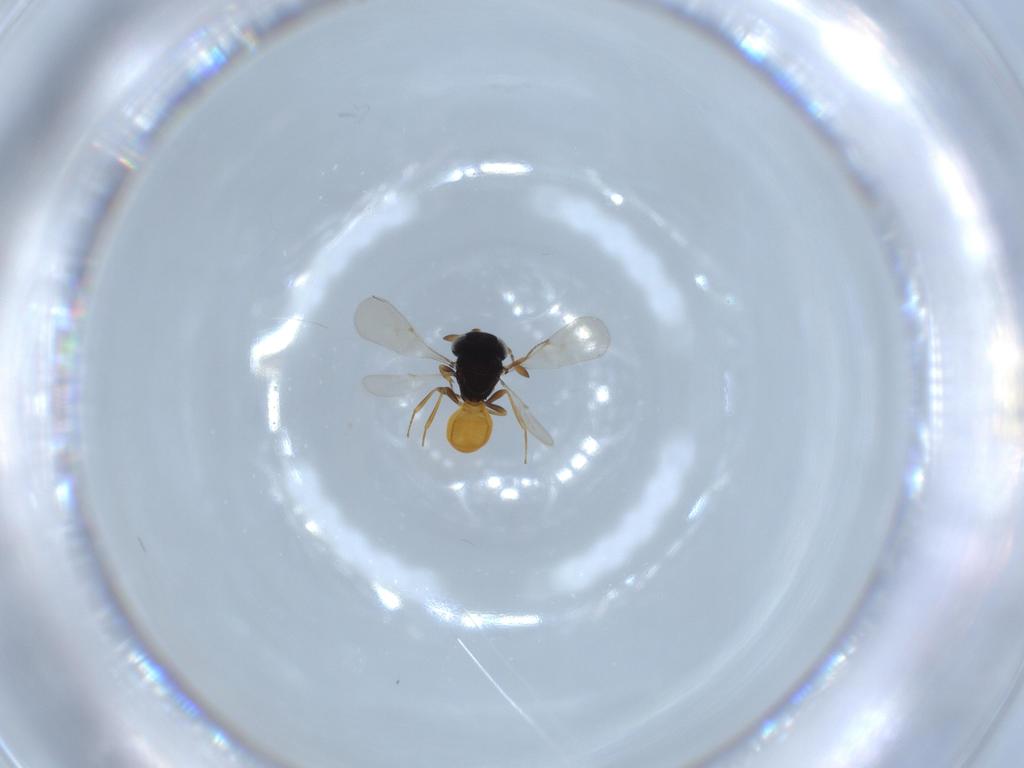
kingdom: Animalia
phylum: Arthropoda
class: Insecta
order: Hymenoptera
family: Scelionidae
